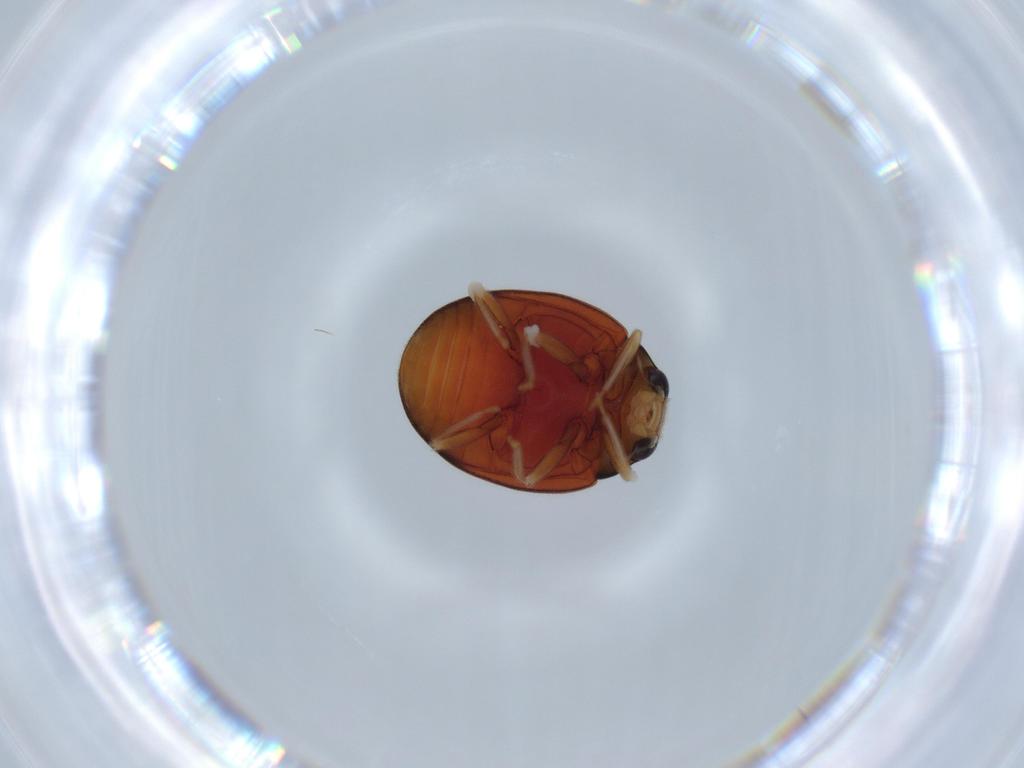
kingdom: Animalia
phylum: Arthropoda
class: Insecta
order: Coleoptera
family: Coccinellidae
